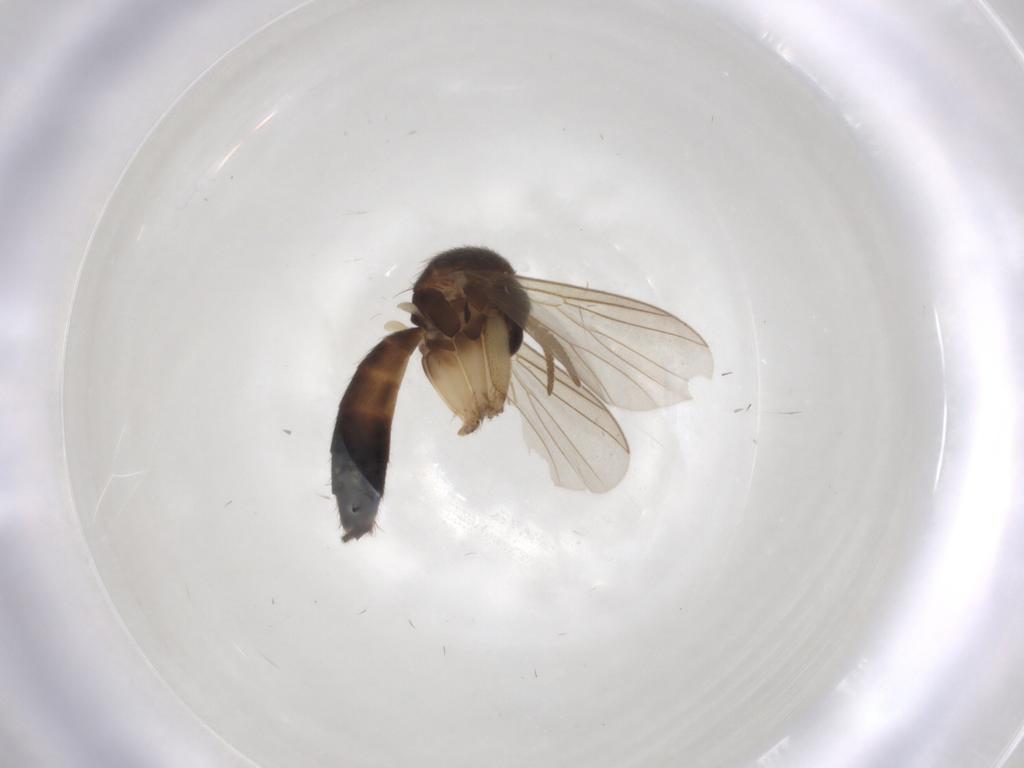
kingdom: Animalia
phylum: Arthropoda
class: Insecta
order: Diptera
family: Mycetophilidae
